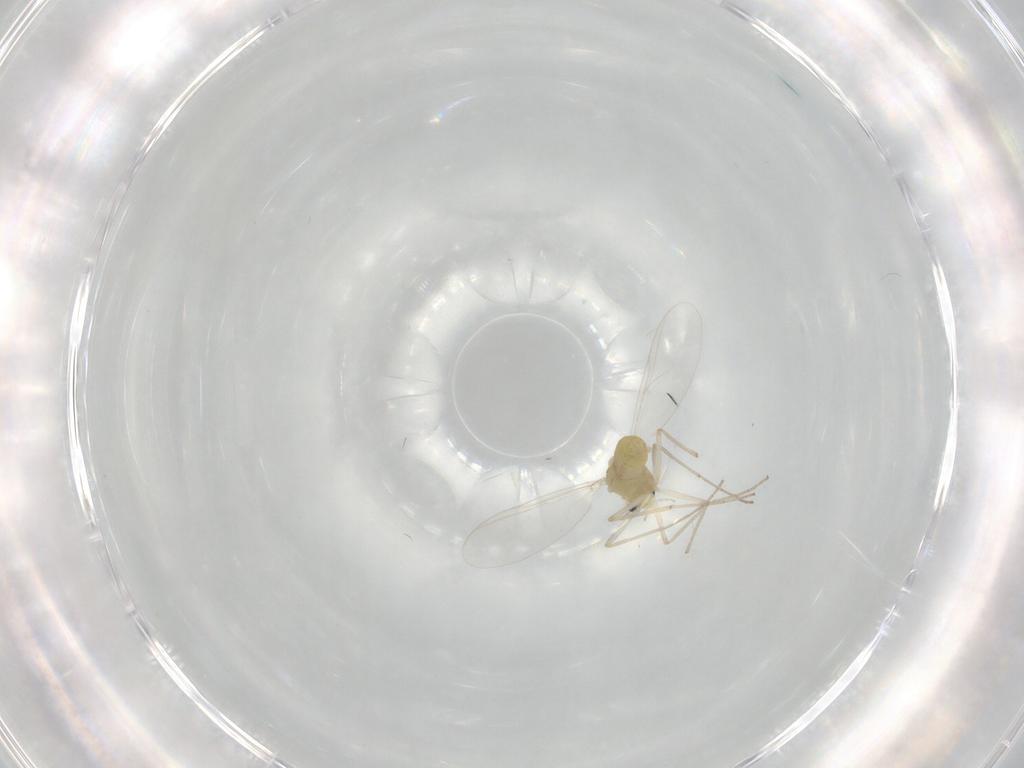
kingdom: Animalia
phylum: Arthropoda
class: Insecta
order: Diptera
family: Chironomidae
